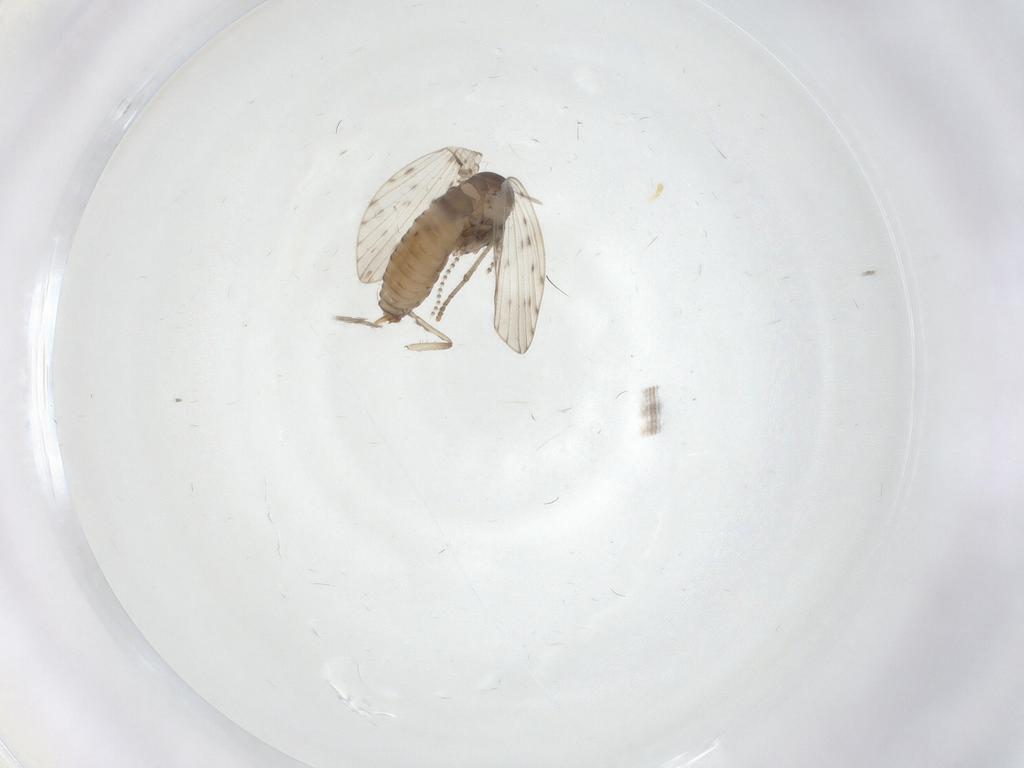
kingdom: Animalia
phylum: Arthropoda
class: Insecta
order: Diptera
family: Psychodidae
